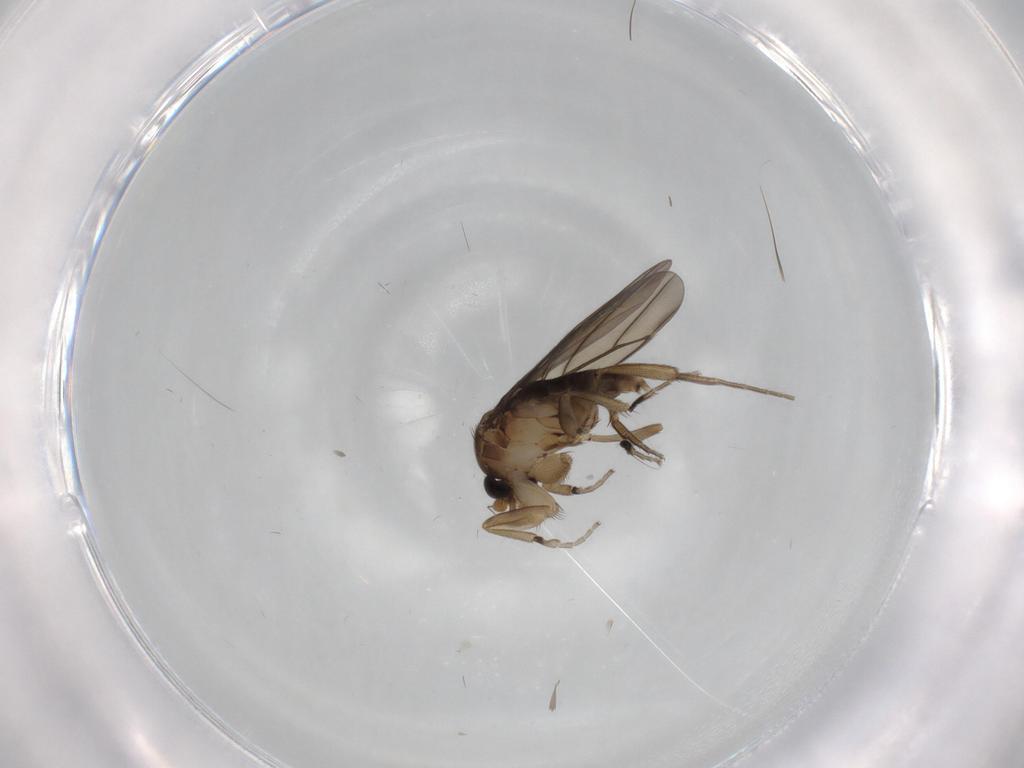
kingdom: Animalia
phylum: Arthropoda
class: Insecta
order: Diptera
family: Phoridae
